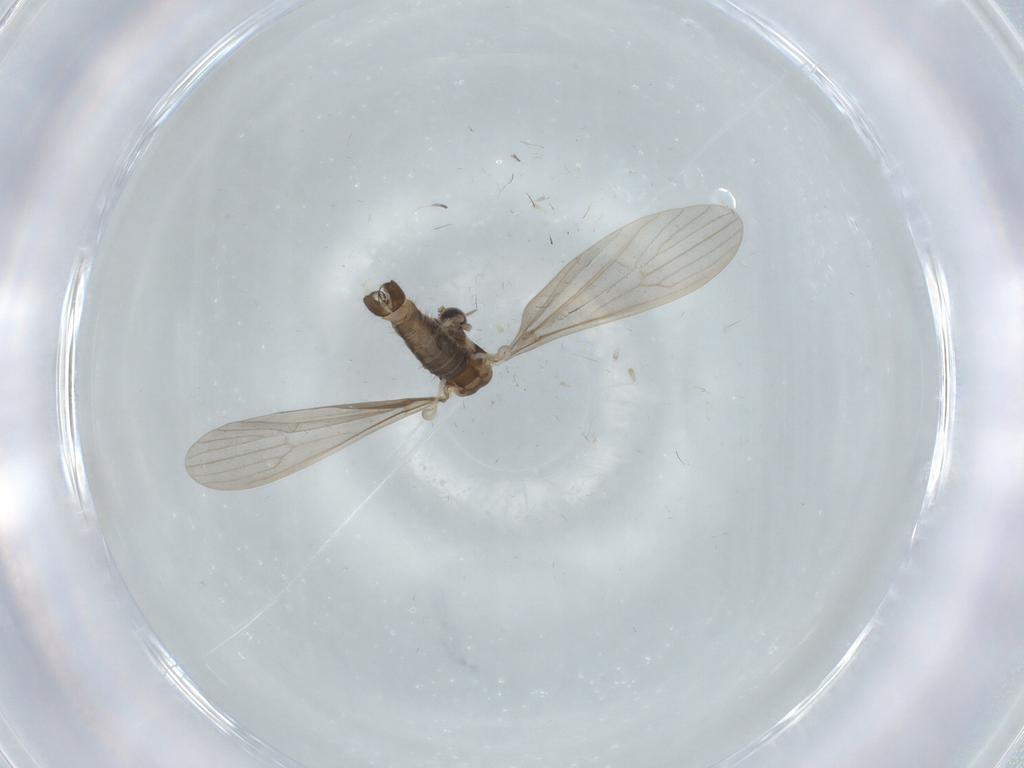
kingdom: Animalia
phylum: Arthropoda
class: Insecta
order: Diptera
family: Limoniidae
